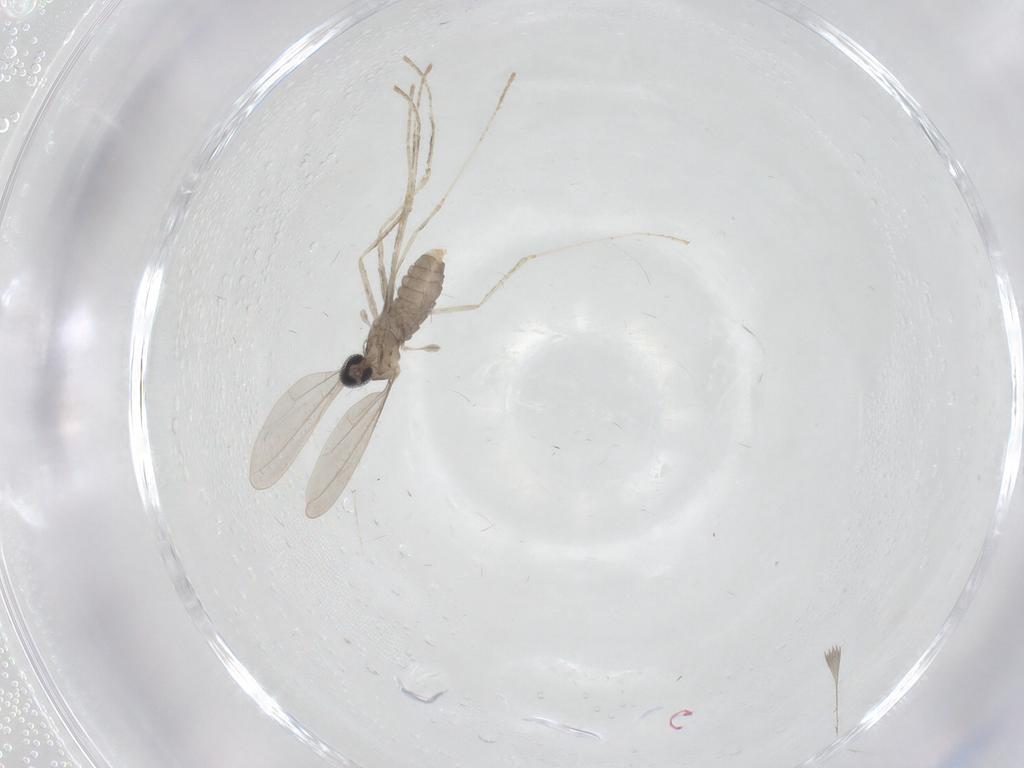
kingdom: Animalia
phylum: Arthropoda
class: Insecta
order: Diptera
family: Cecidomyiidae
